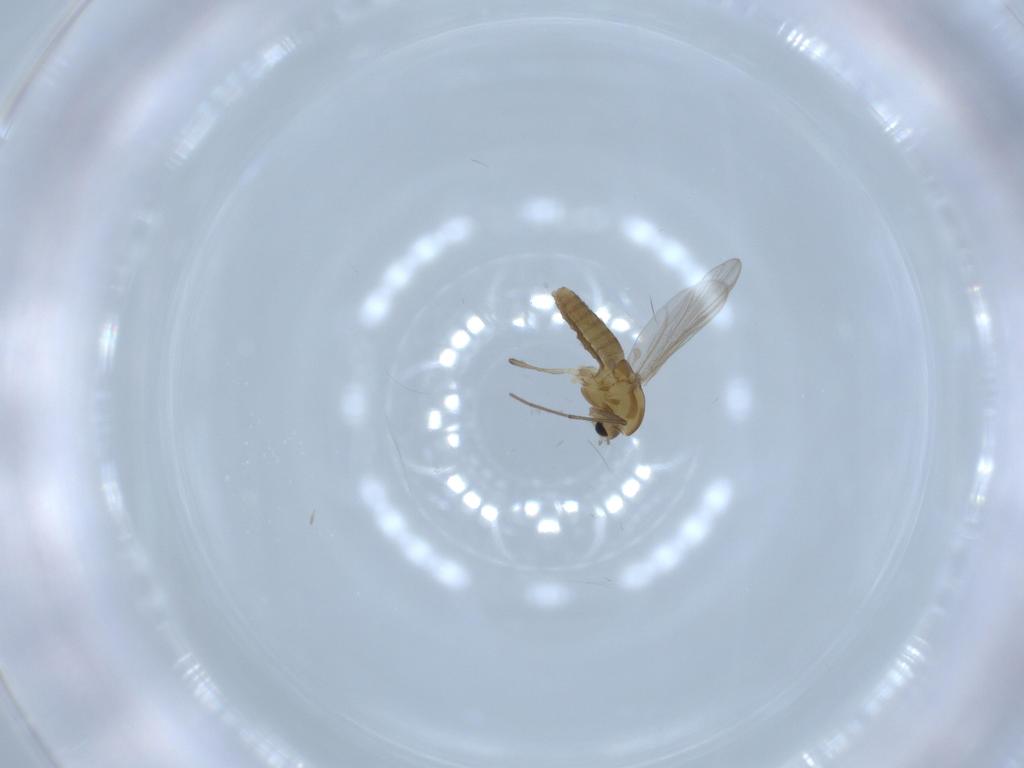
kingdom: Animalia
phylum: Arthropoda
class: Insecta
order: Diptera
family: Chironomidae
